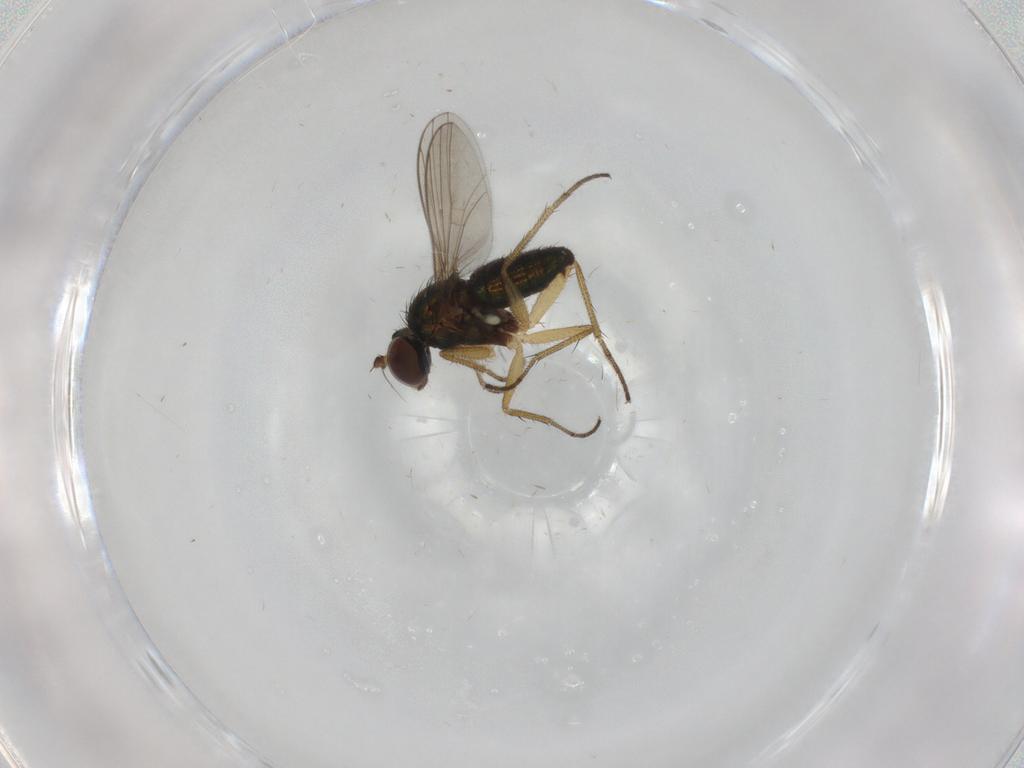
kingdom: Animalia
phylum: Arthropoda
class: Insecta
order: Diptera
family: Dolichopodidae
